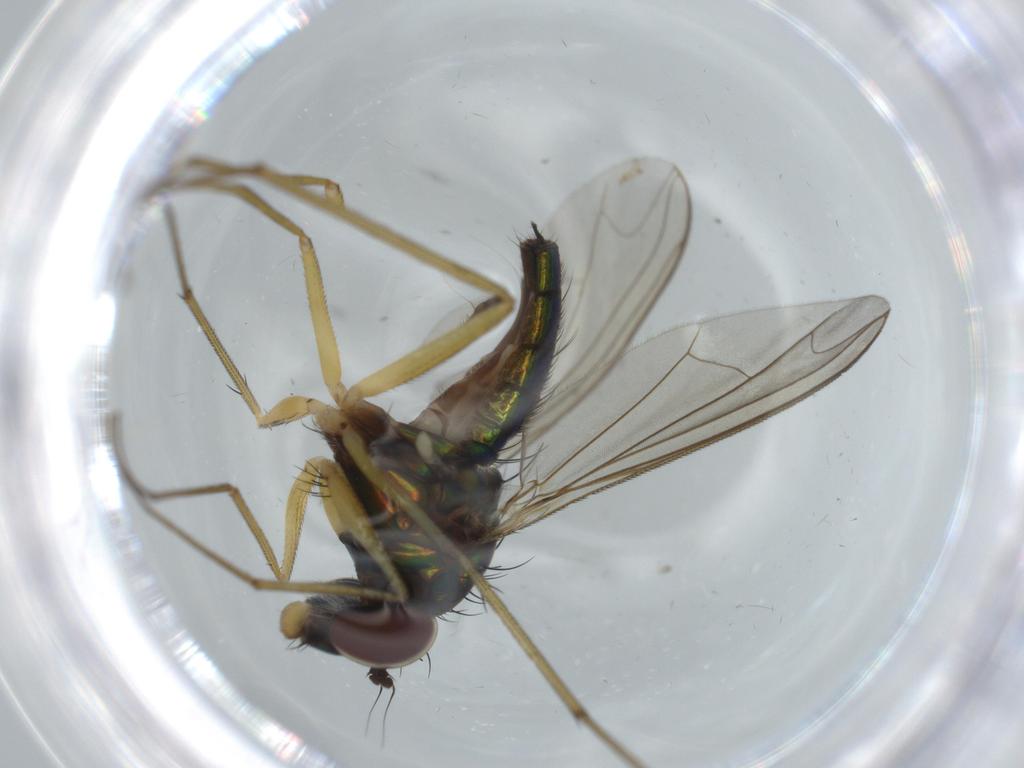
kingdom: Animalia
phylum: Arthropoda
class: Insecta
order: Diptera
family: Dolichopodidae
